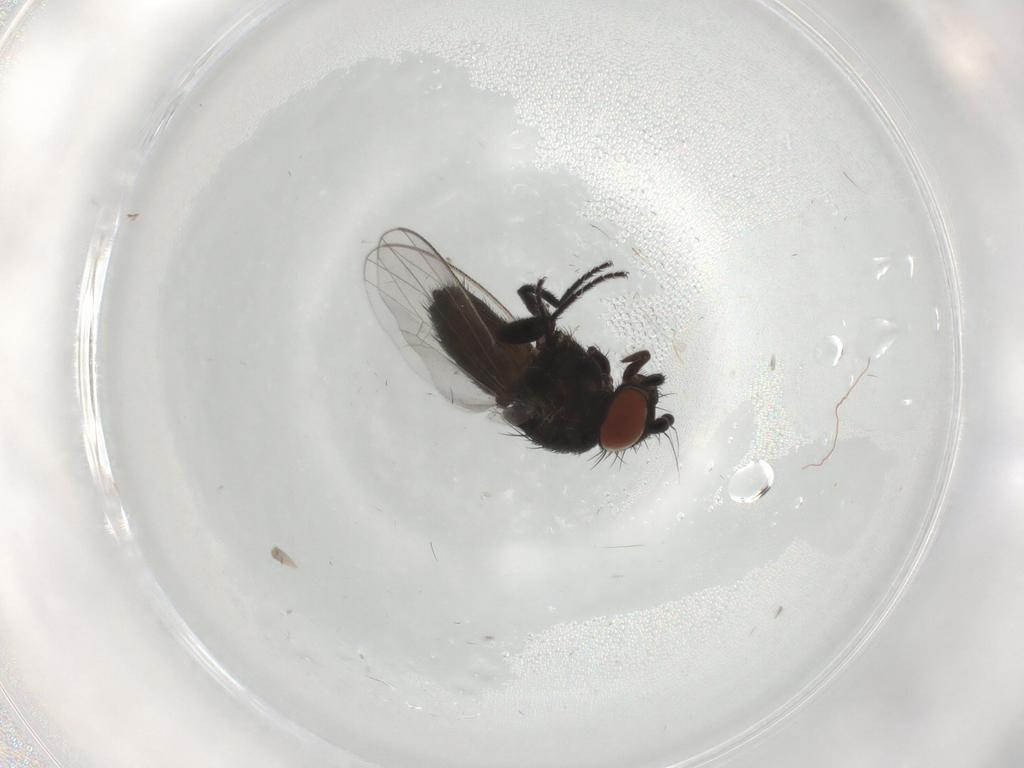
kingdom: Animalia
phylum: Arthropoda
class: Insecta
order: Diptera
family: Milichiidae
